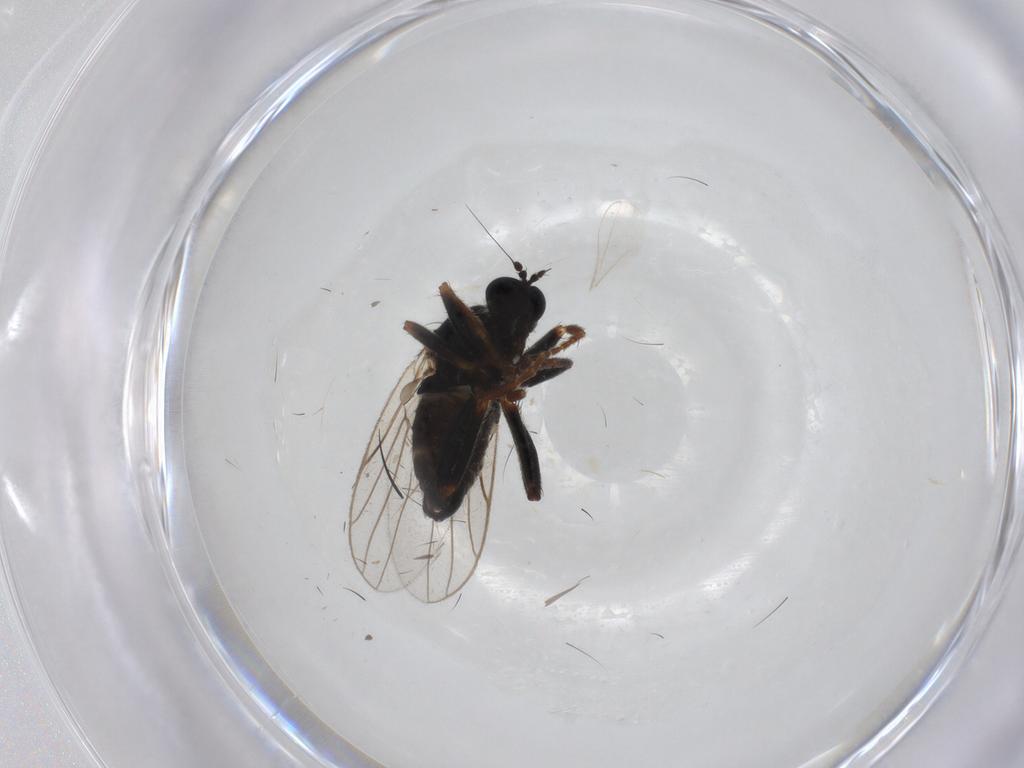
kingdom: Animalia
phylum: Arthropoda
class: Insecta
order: Diptera
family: Hybotidae
